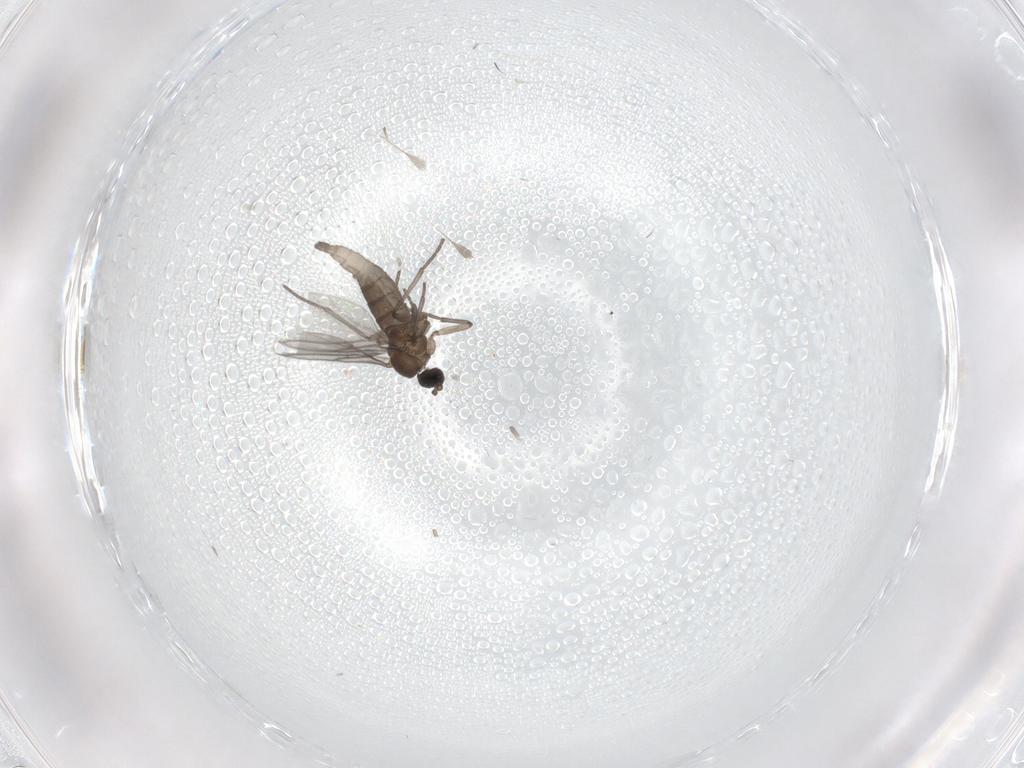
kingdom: Animalia
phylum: Arthropoda
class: Insecta
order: Diptera
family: Sciaridae
